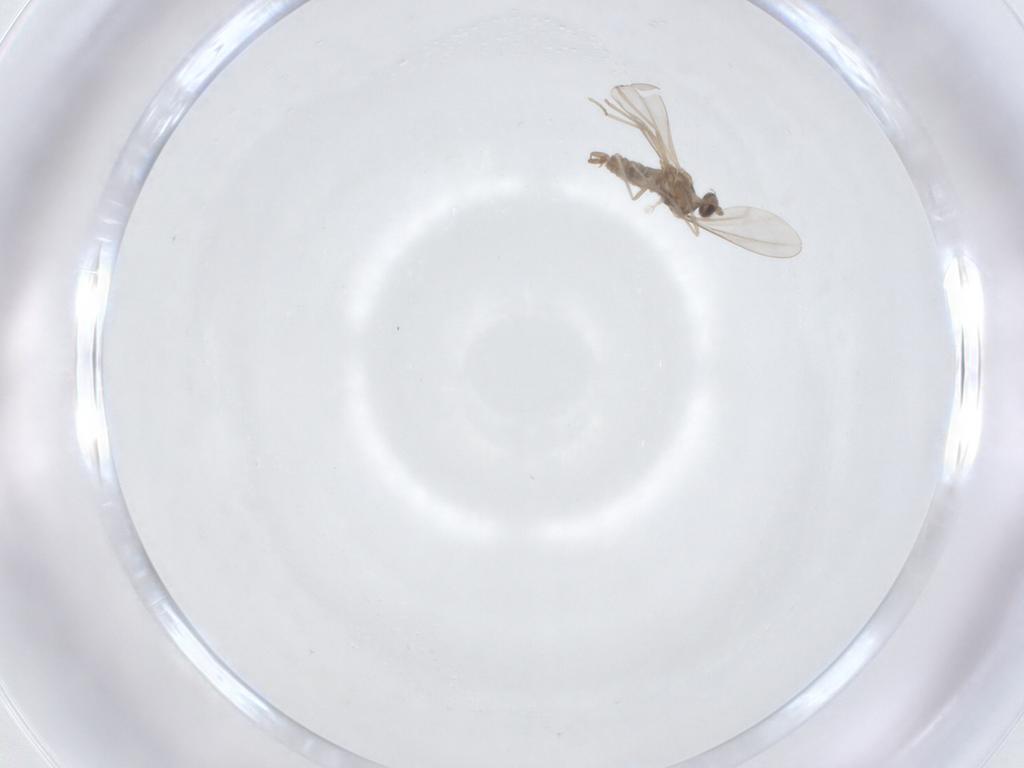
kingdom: Animalia
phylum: Arthropoda
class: Insecta
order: Diptera
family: Cecidomyiidae
